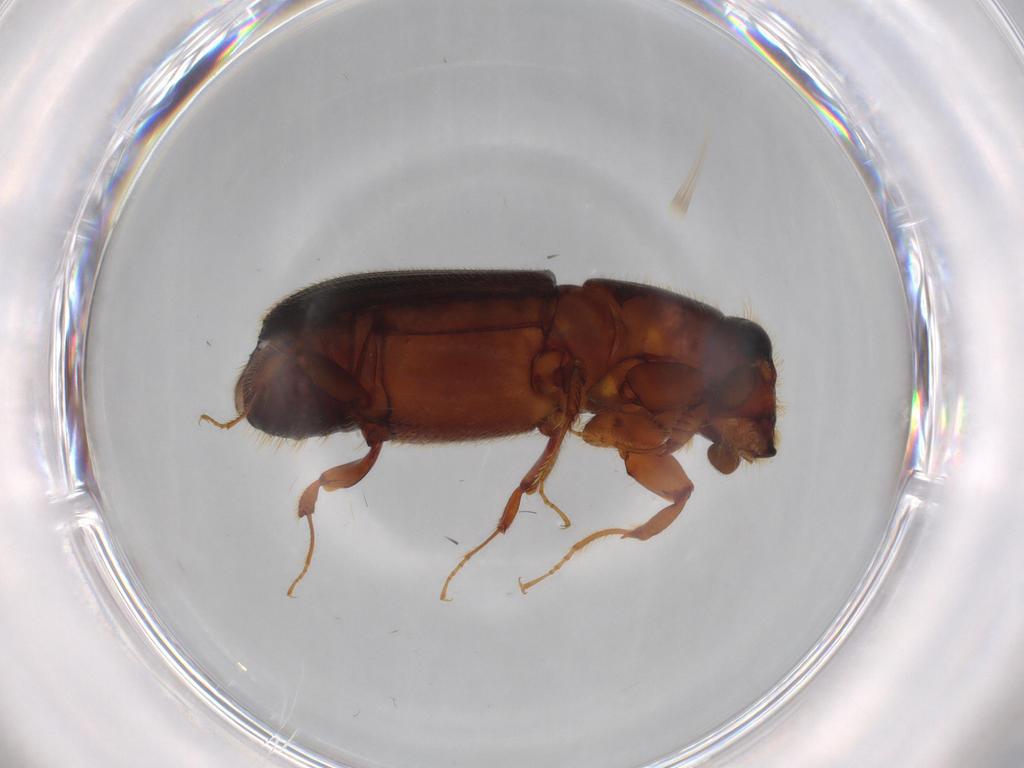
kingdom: Animalia
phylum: Arthropoda
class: Insecta
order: Coleoptera
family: Curculionidae
